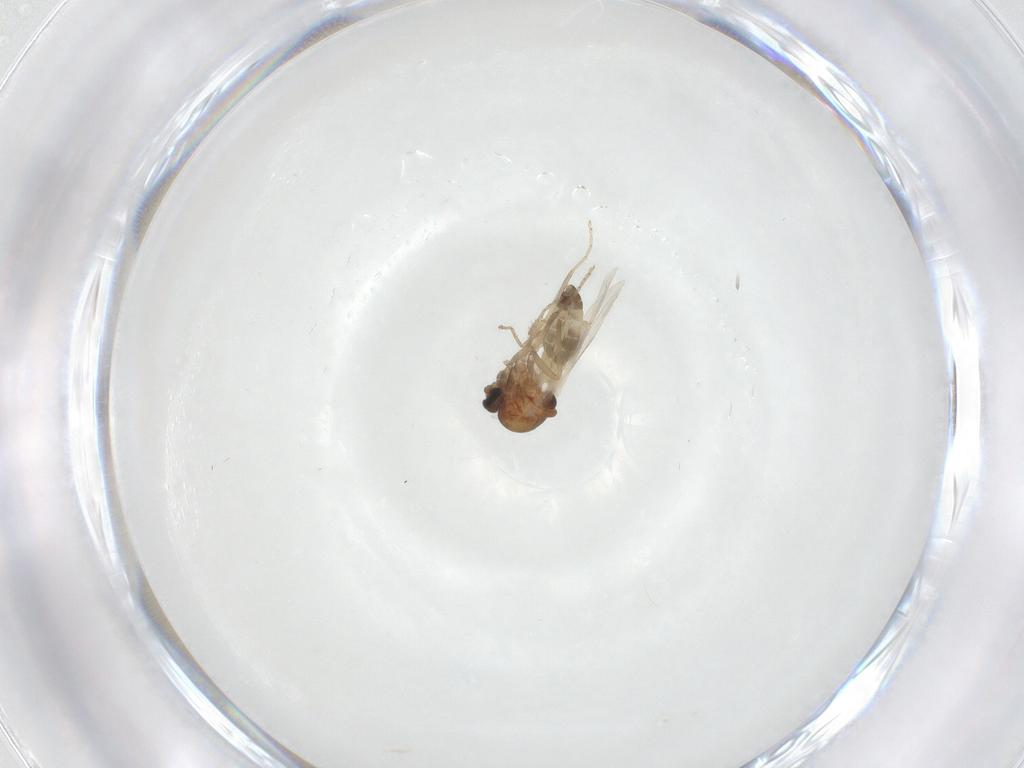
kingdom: Animalia
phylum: Arthropoda
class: Insecta
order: Diptera
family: Ceratopogonidae
